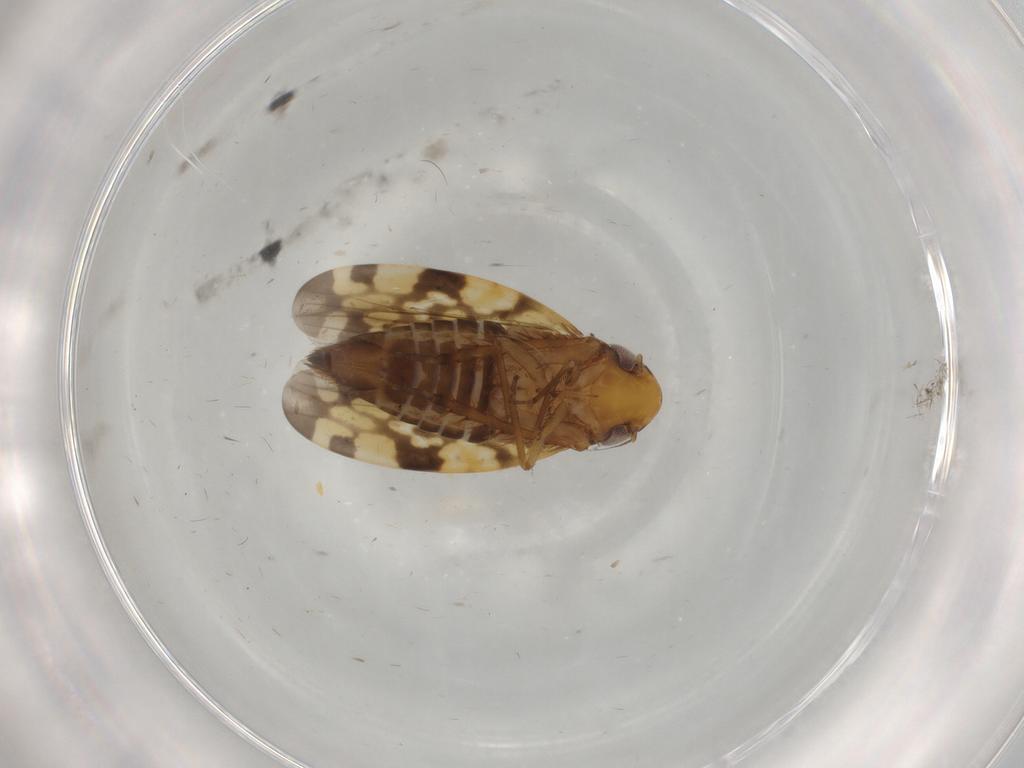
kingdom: Animalia
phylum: Arthropoda
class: Insecta
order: Hemiptera
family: Cicadellidae
